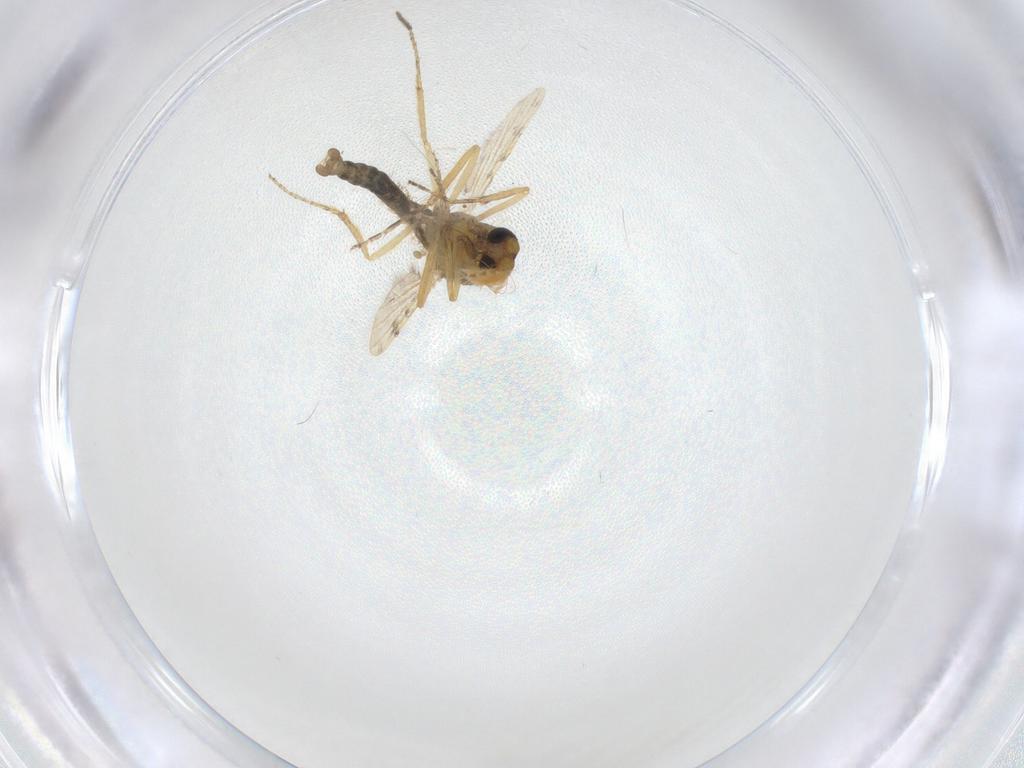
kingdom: Animalia
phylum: Arthropoda
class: Insecta
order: Diptera
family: Ceratopogonidae
